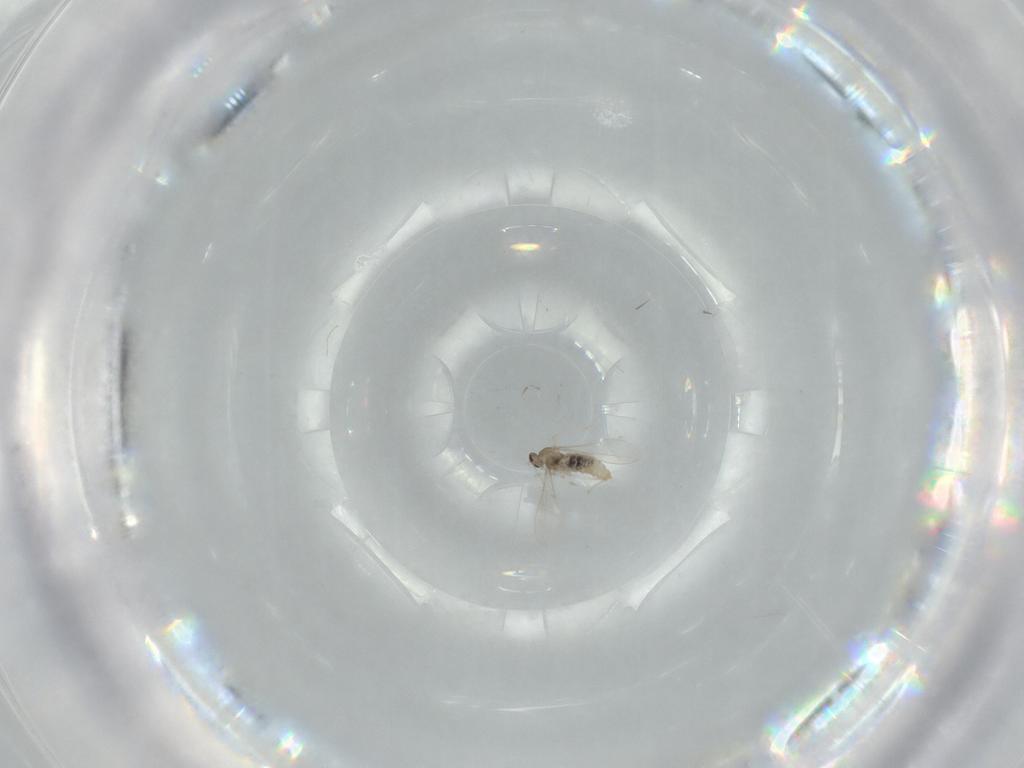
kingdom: Animalia
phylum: Arthropoda
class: Insecta
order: Diptera
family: Cecidomyiidae
